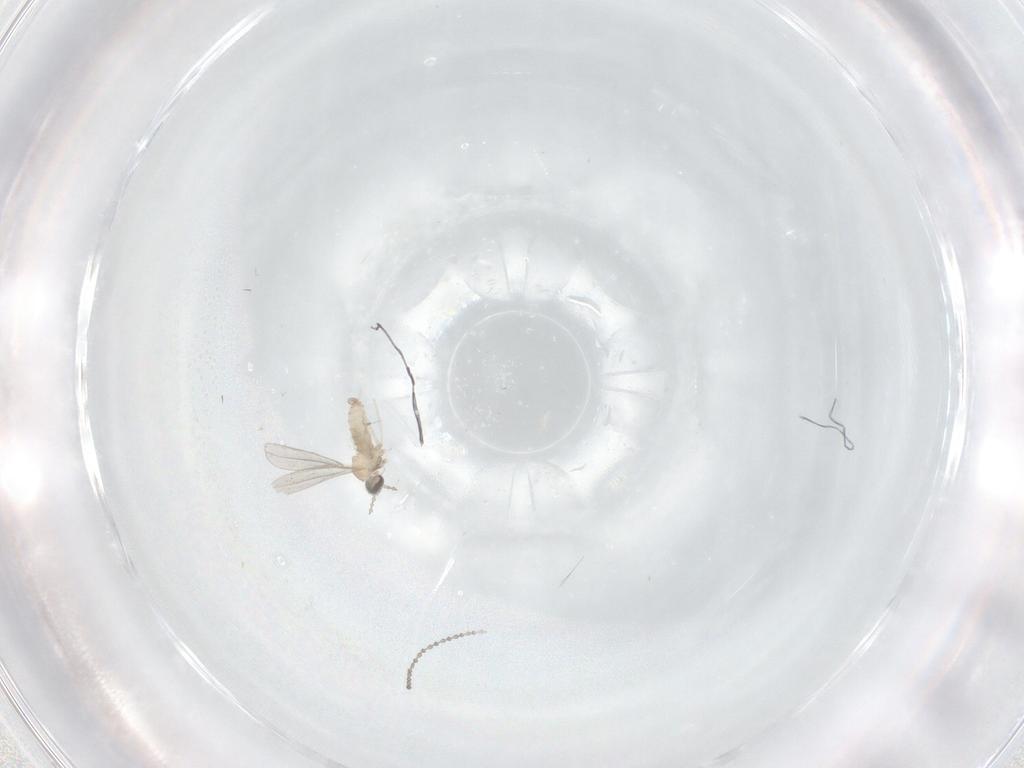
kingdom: Animalia
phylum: Arthropoda
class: Insecta
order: Diptera
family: Cecidomyiidae
